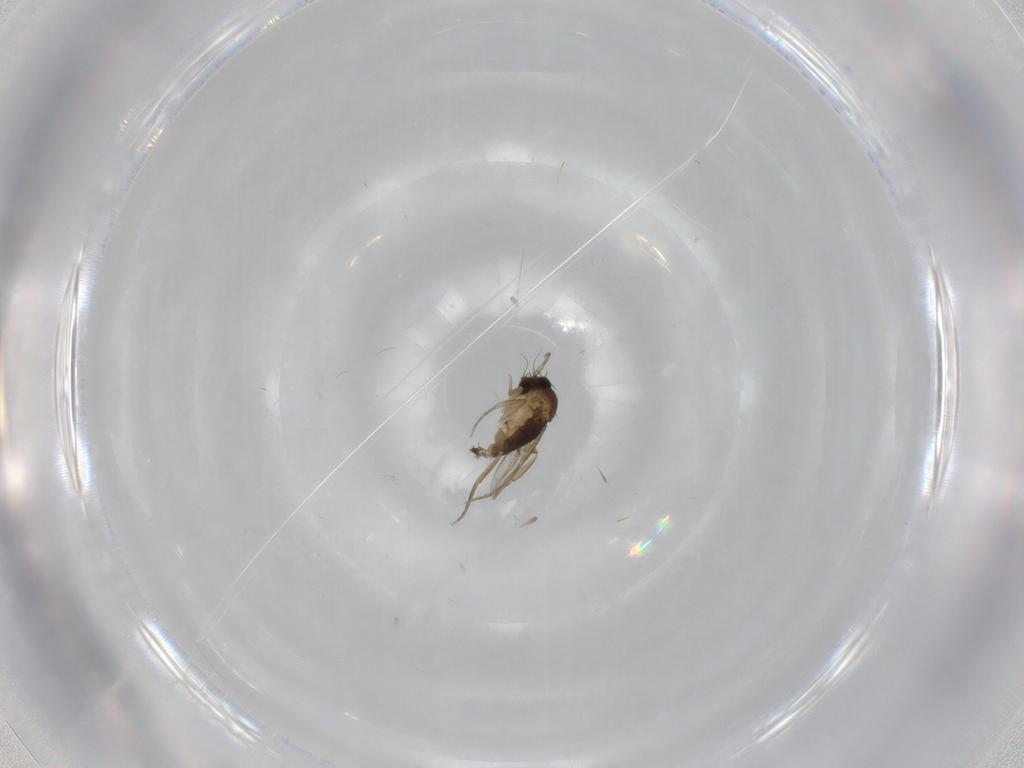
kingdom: Animalia
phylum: Arthropoda
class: Insecta
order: Diptera
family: Phoridae
